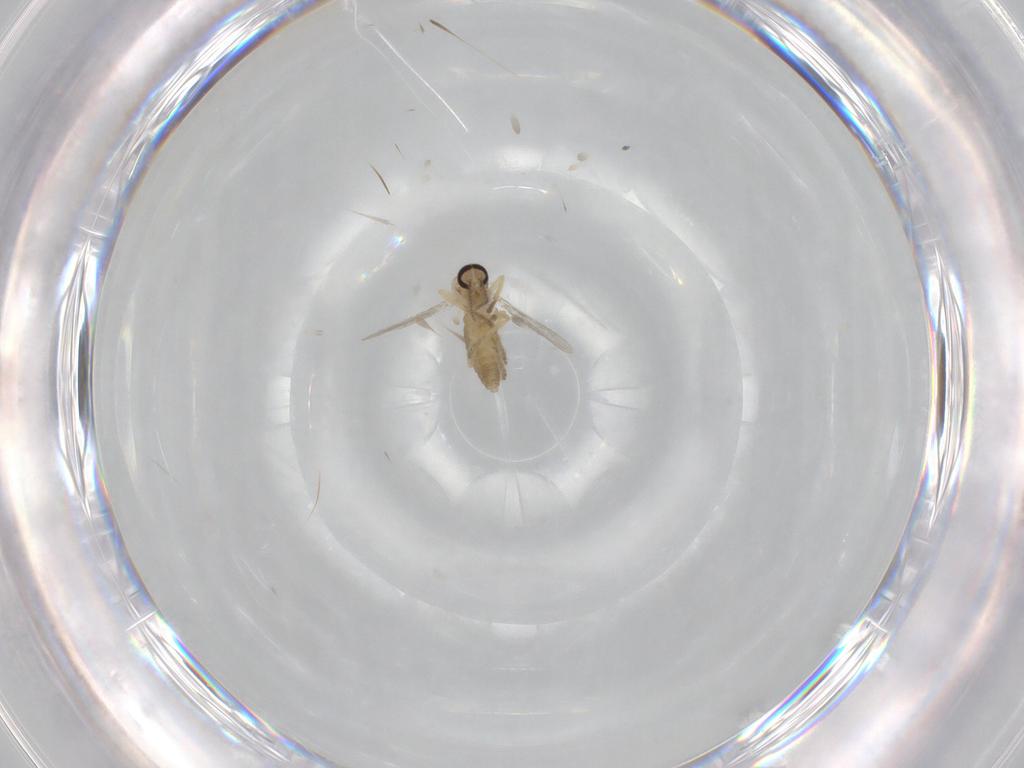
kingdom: Animalia
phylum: Arthropoda
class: Insecta
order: Diptera
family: Ceratopogonidae
